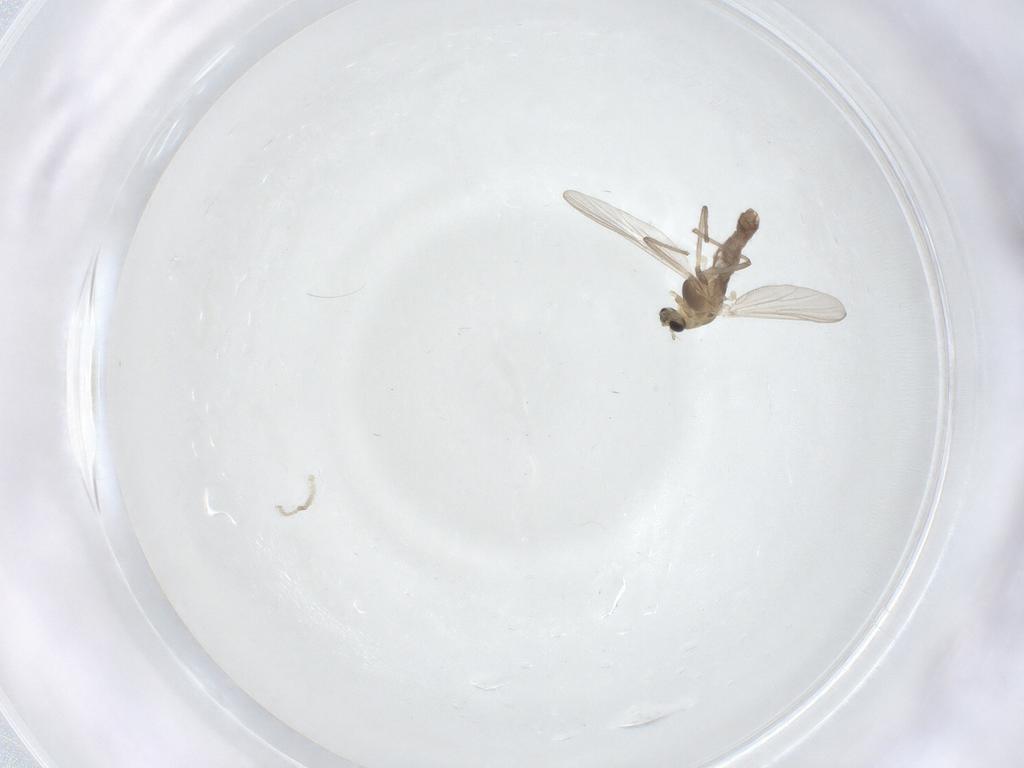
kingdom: Animalia
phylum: Arthropoda
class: Insecta
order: Diptera
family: Chironomidae
